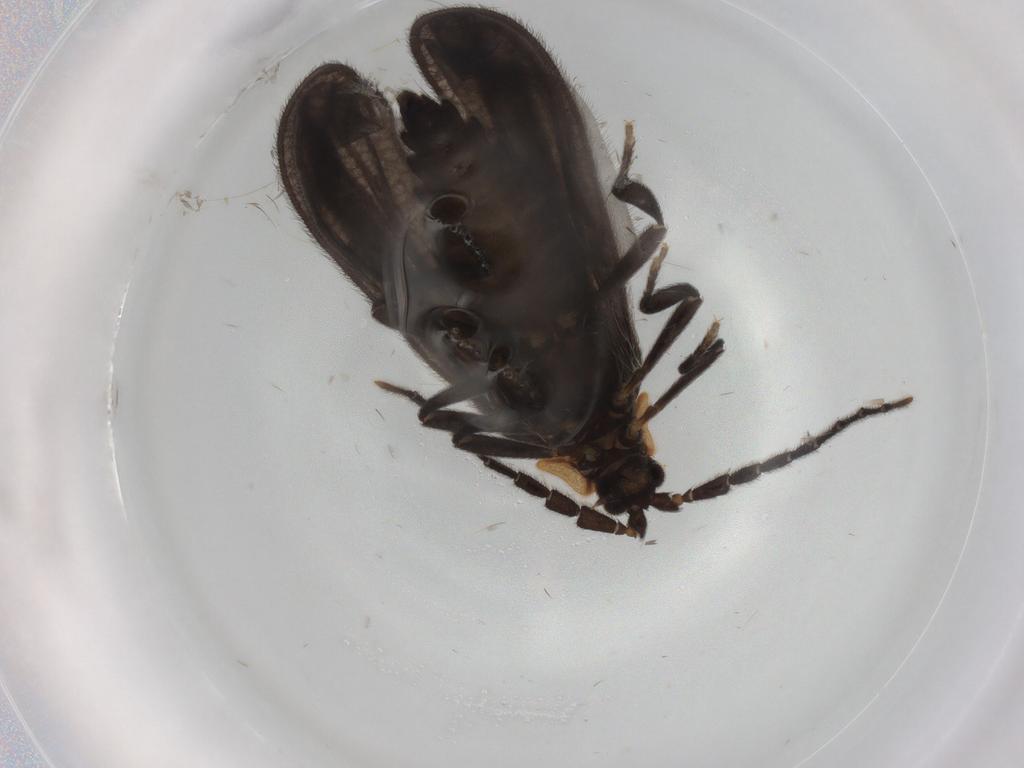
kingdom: Animalia
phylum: Arthropoda
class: Insecta
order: Coleoptera
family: Lycidae
